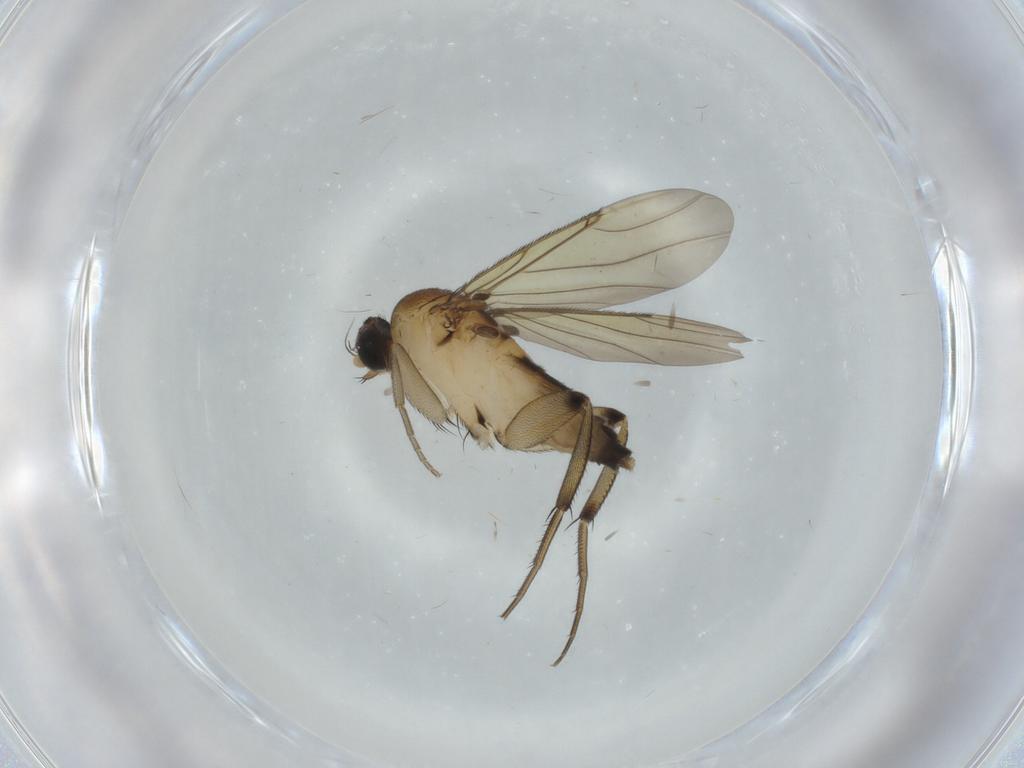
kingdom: Animalia
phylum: Arthropoda
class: Insecta
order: Diptera
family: Phoridae
